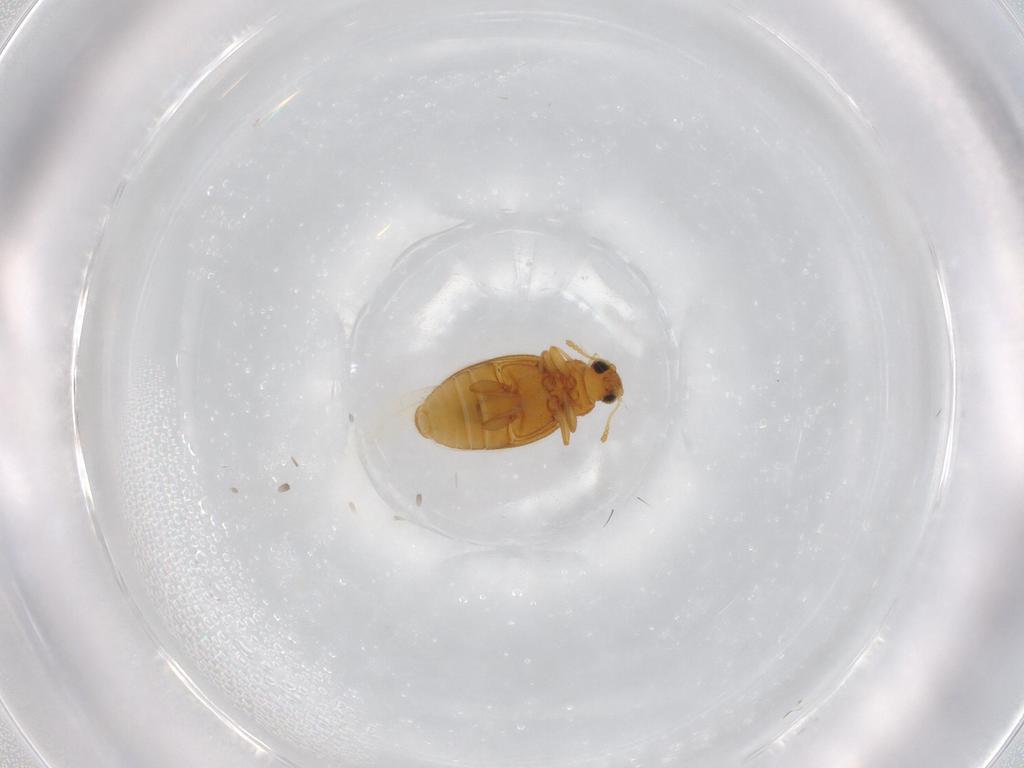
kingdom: Animalia
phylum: Arthropoda
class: Insecta
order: Coleoptera
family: Latridiidae
